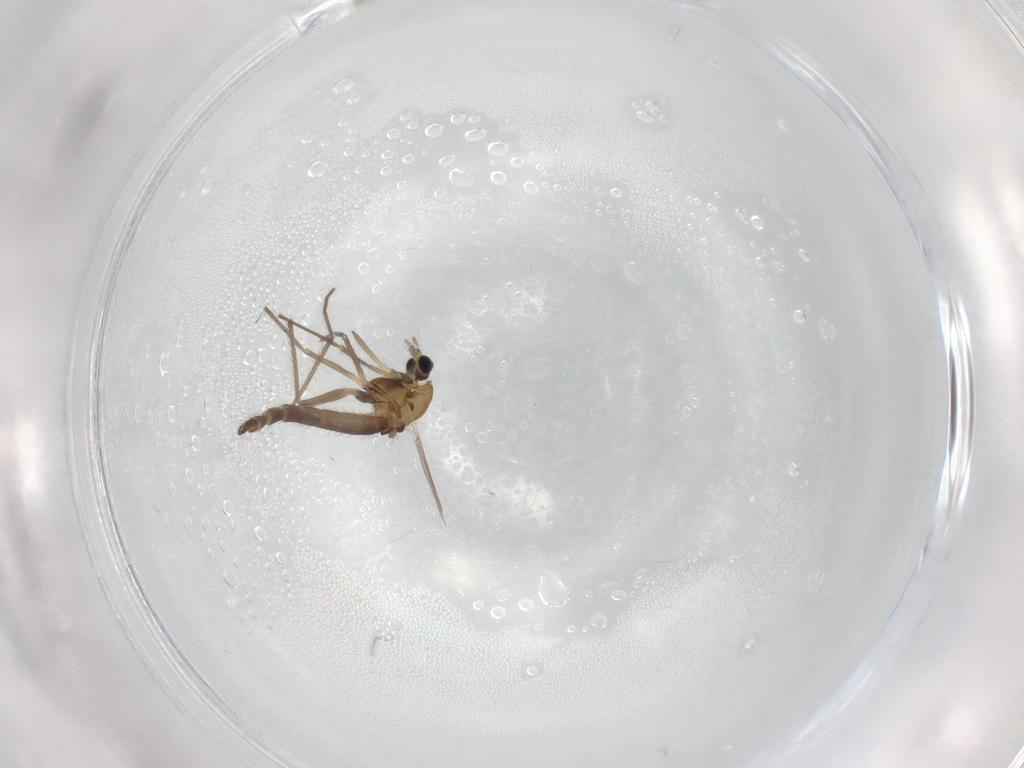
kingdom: Animalia
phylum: Arthropoda
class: Insecta
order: Diptera
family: Chironomidae
